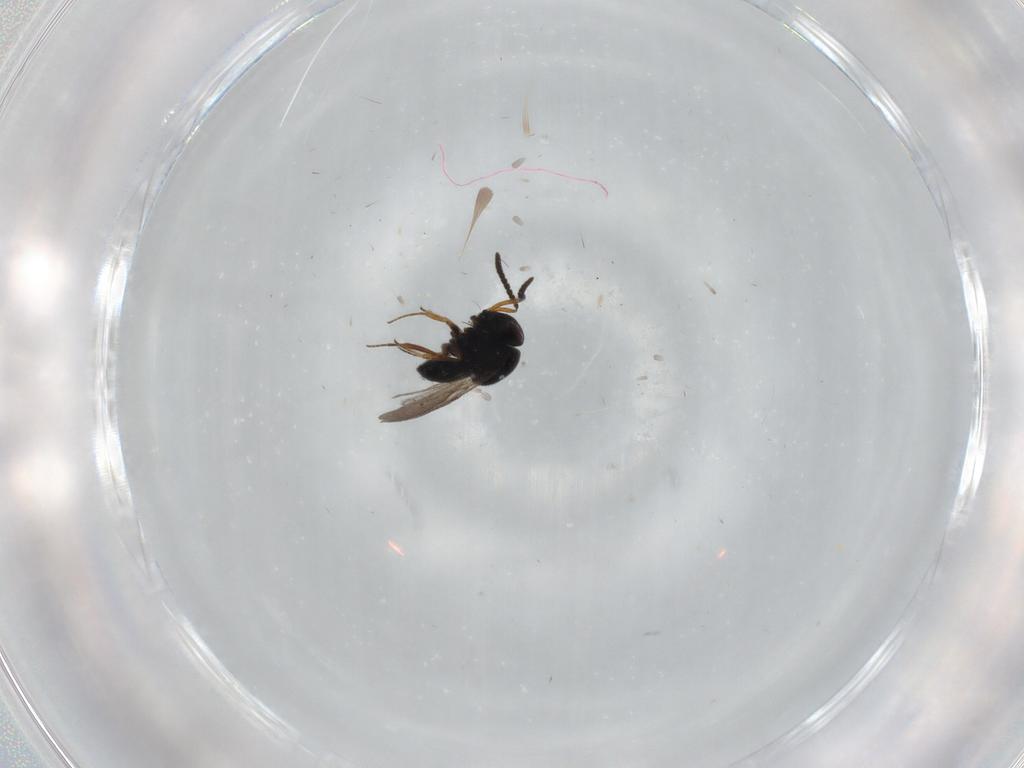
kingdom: Animalia
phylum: Arthropoda
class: Insecta
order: Hymenoptera
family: Scelionidae
